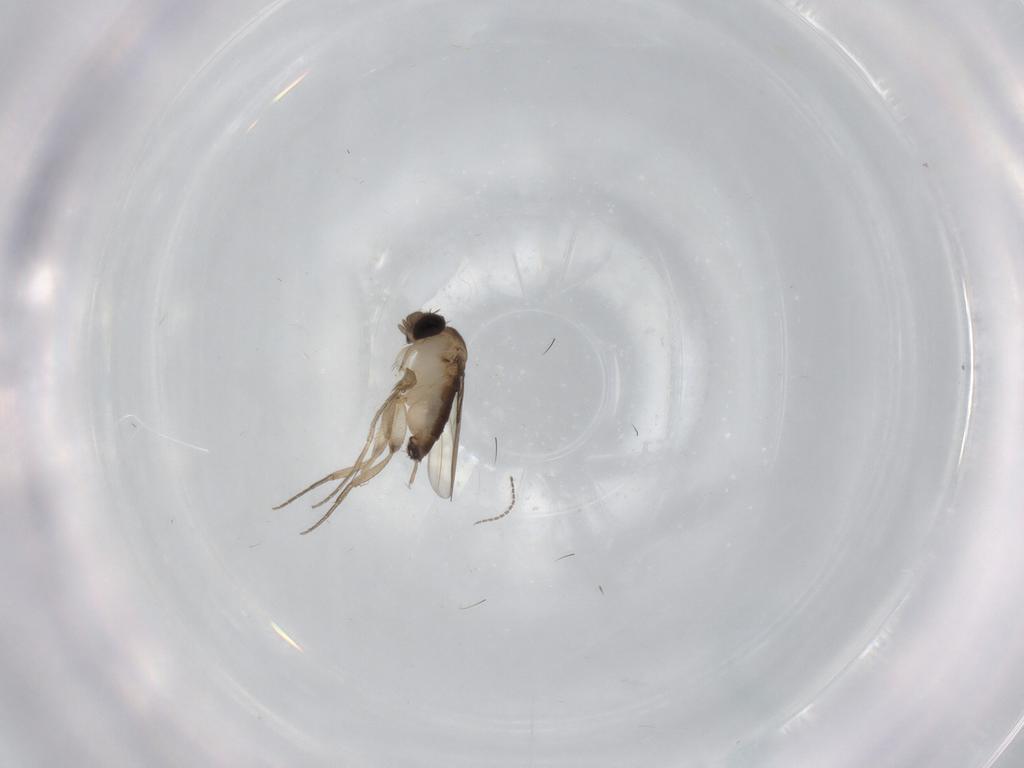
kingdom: Animalia
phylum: Arthropoda
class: Insecta
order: Diptera
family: Phoridae
